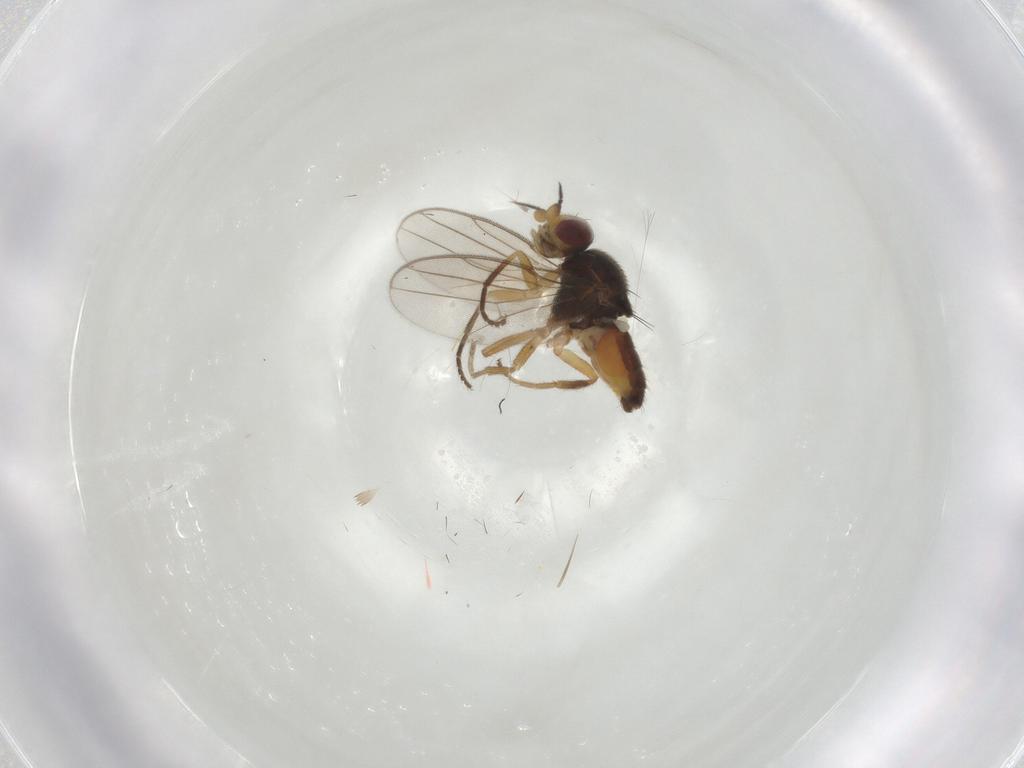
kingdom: Animalia
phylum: Arthropoda
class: Insecta
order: Diptera
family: Chloropidae
